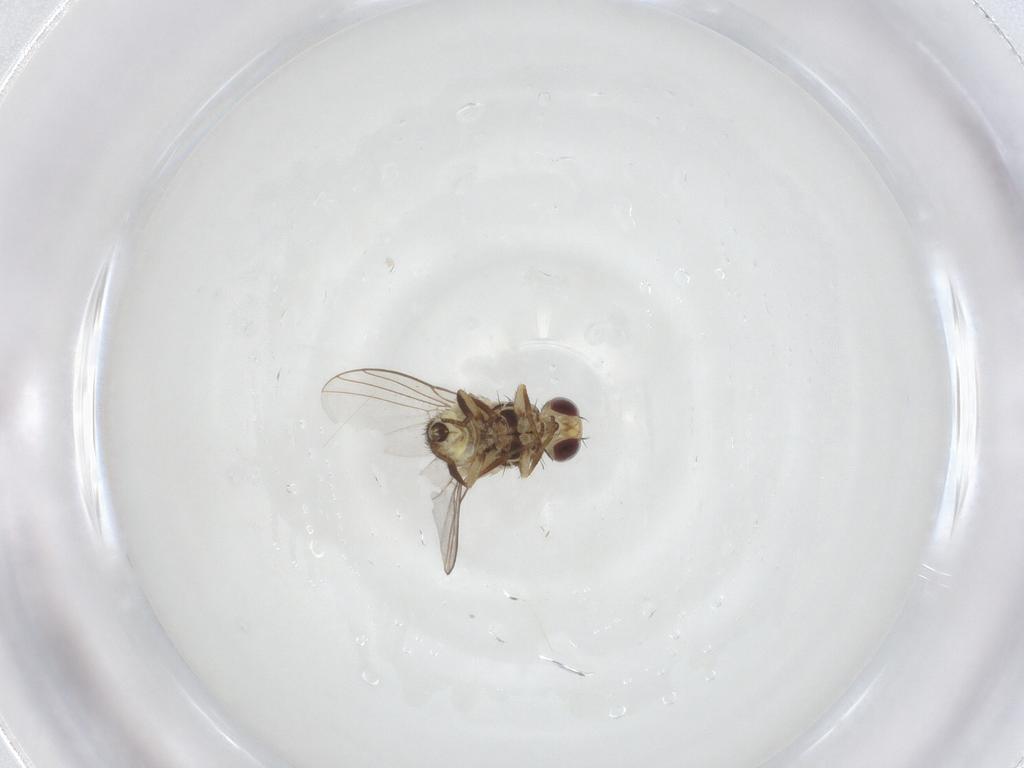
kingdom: Animalia
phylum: Arthropoda
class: Insecta
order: Diptera
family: Agromyzidae
